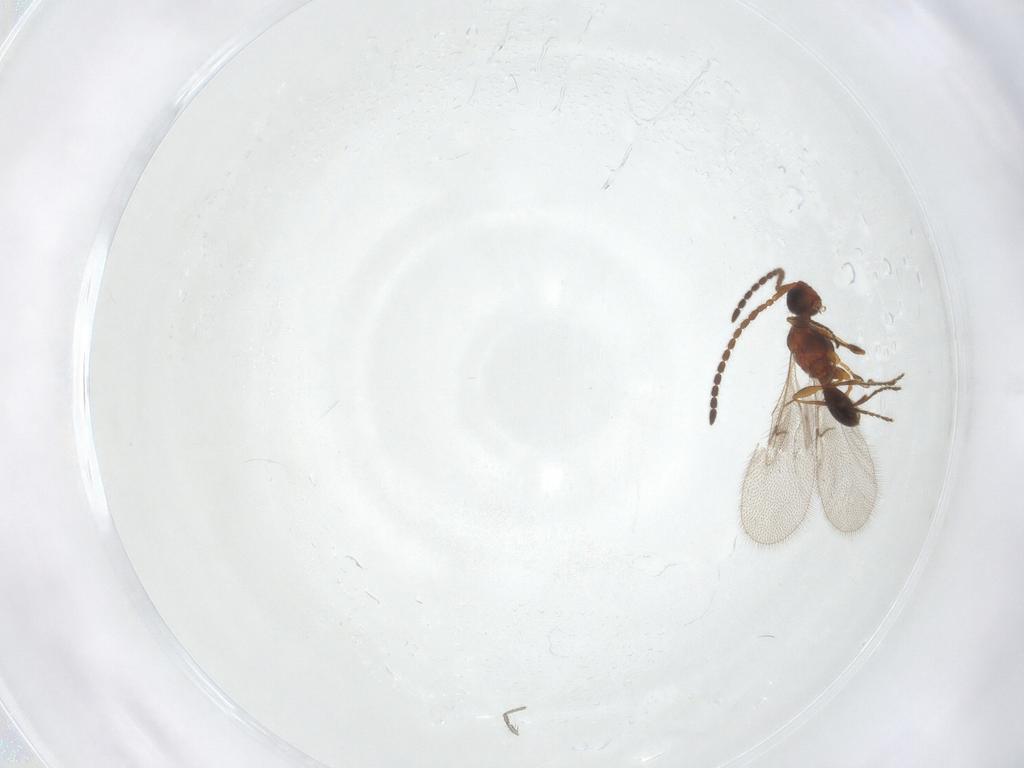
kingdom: Animalia
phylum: Arthropoda
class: Insecta
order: Hymenoptera
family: Diapriidae
